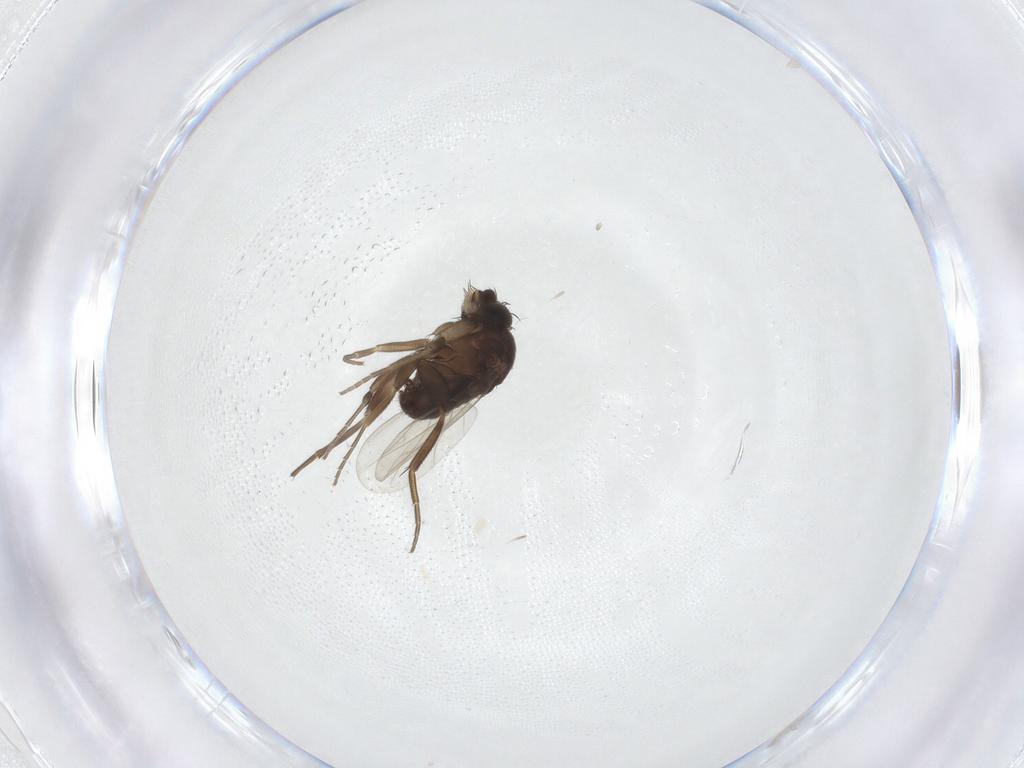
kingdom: Animalia
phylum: Arthropoda
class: Insecta
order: Diptera
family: Phoridae
